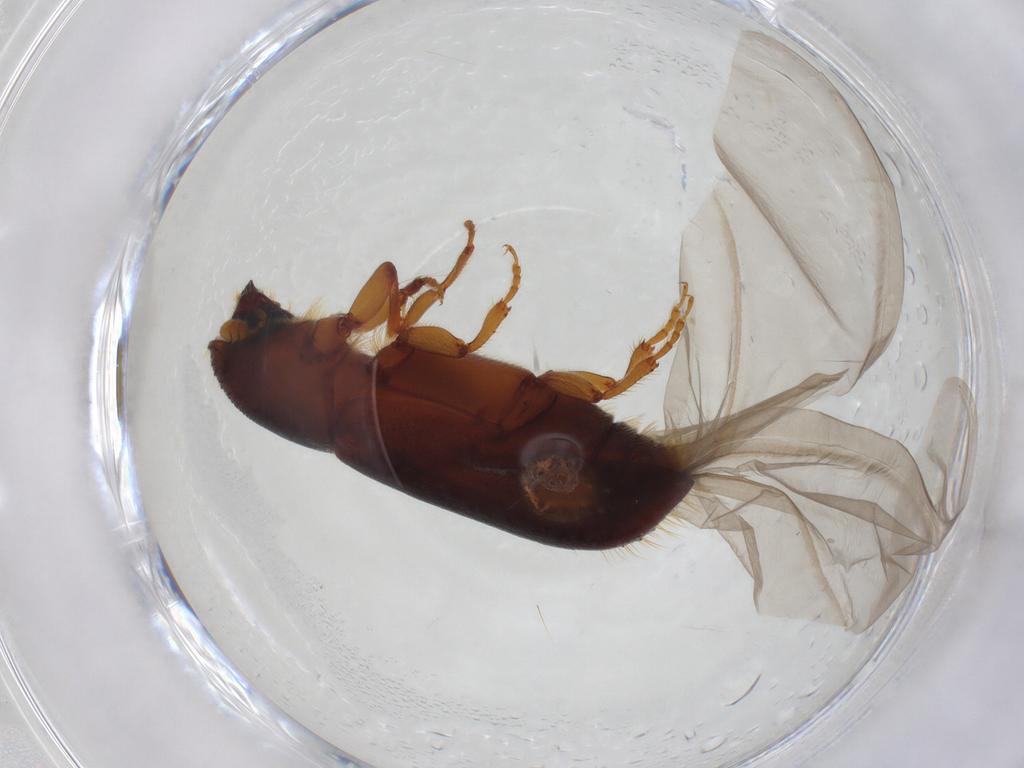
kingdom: Animalia
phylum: Arthropoda
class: Insecta
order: Coleoptera
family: Curculionidae
